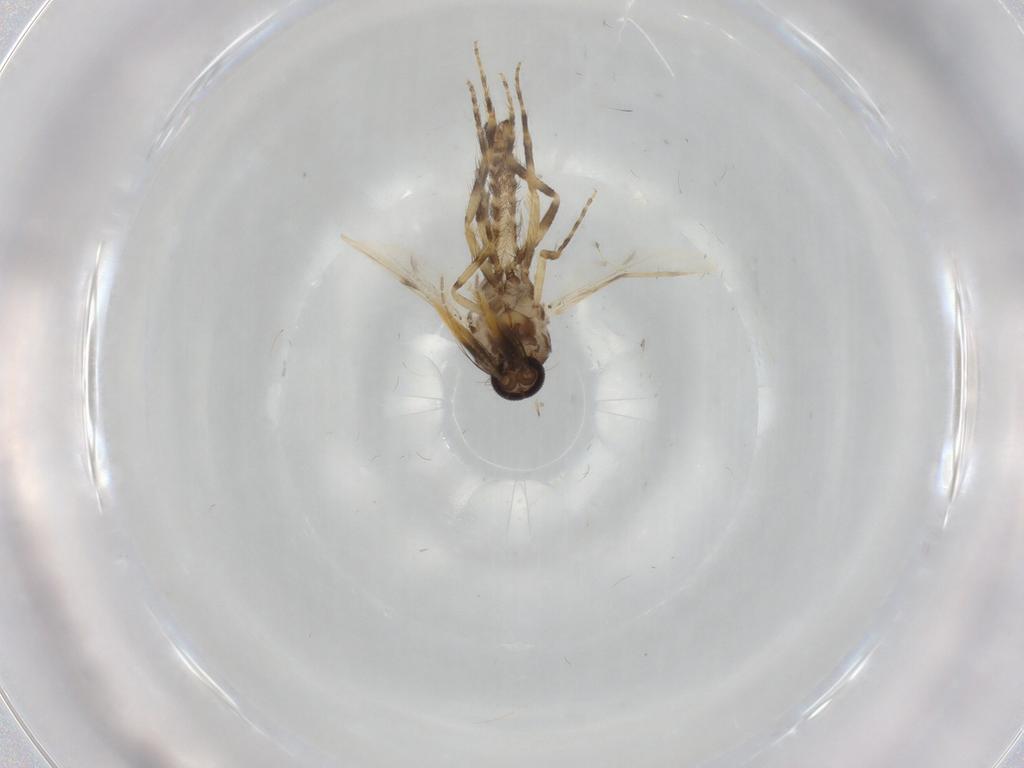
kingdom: Animalia
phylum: Arthropoda
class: Insecta
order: Diptera
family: Ceratopogonidae
